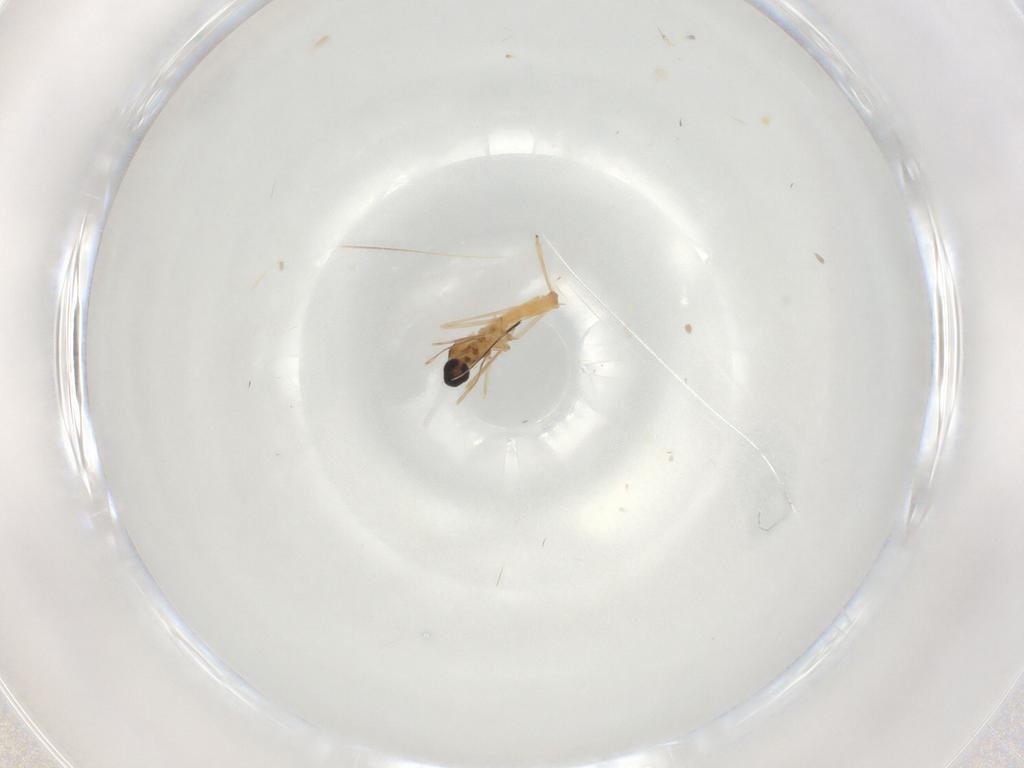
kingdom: Animalia
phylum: Arthropoda
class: Insecta
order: Diptera
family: Cecidomyiidae
